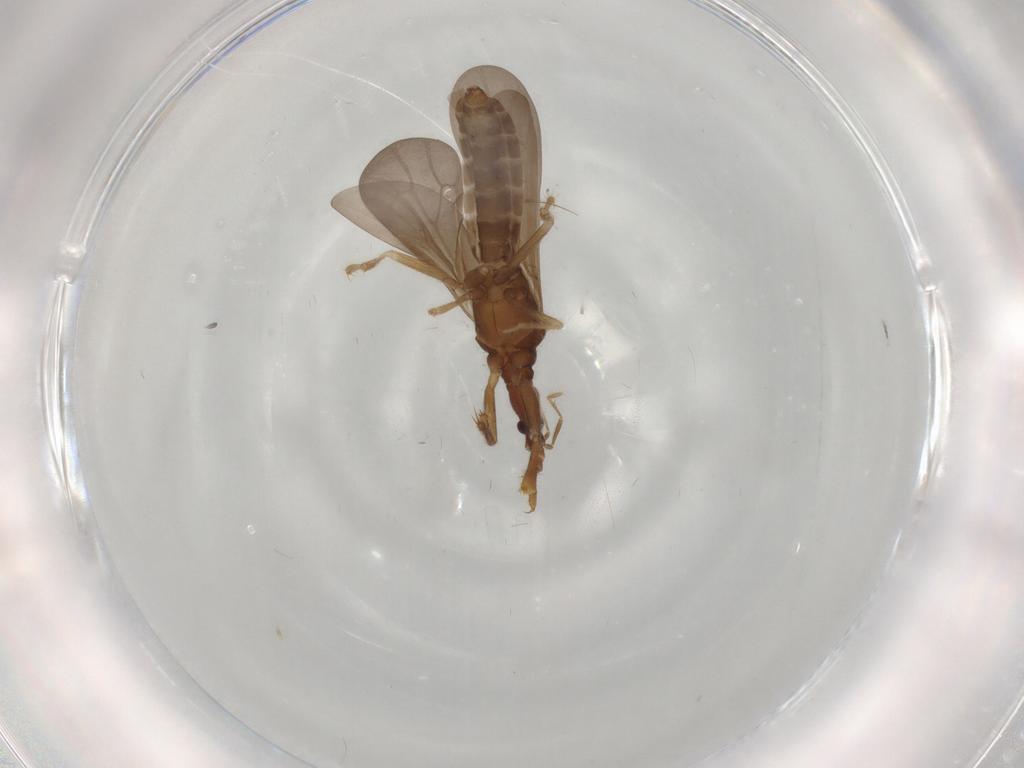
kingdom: Animalia
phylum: Arthropoda
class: Insecta
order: Hemiptera
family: Enicocephalidae
